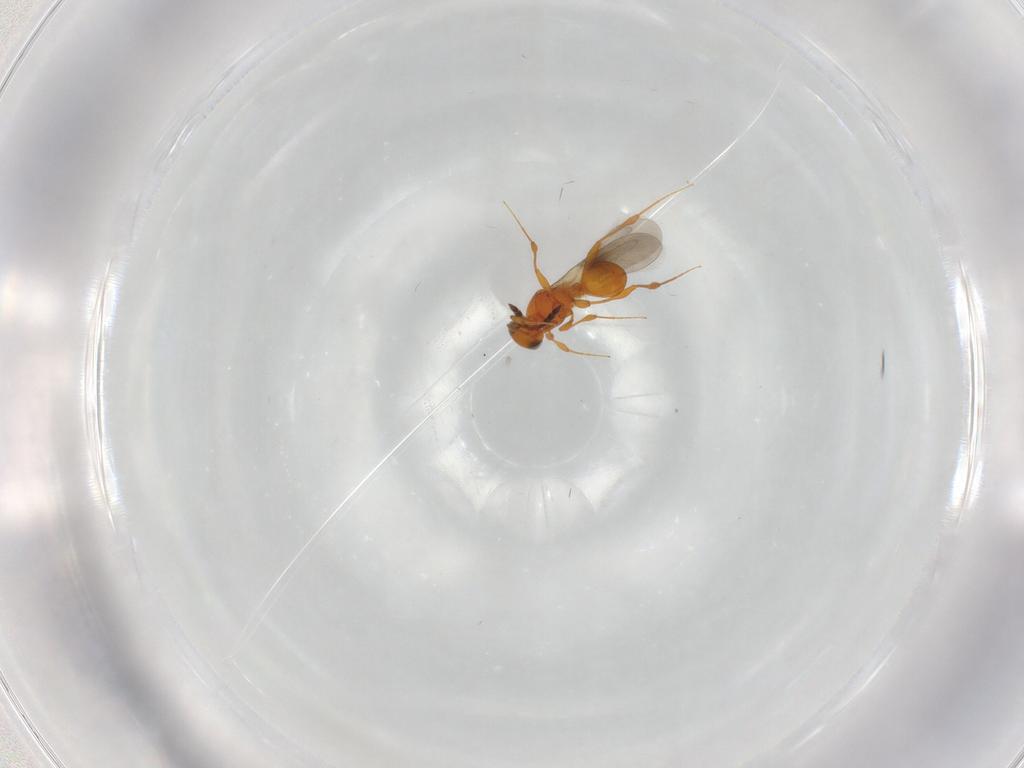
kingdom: Animalia
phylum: Arthropoda
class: Insecta
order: Hymenoptera
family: Platygastridae
